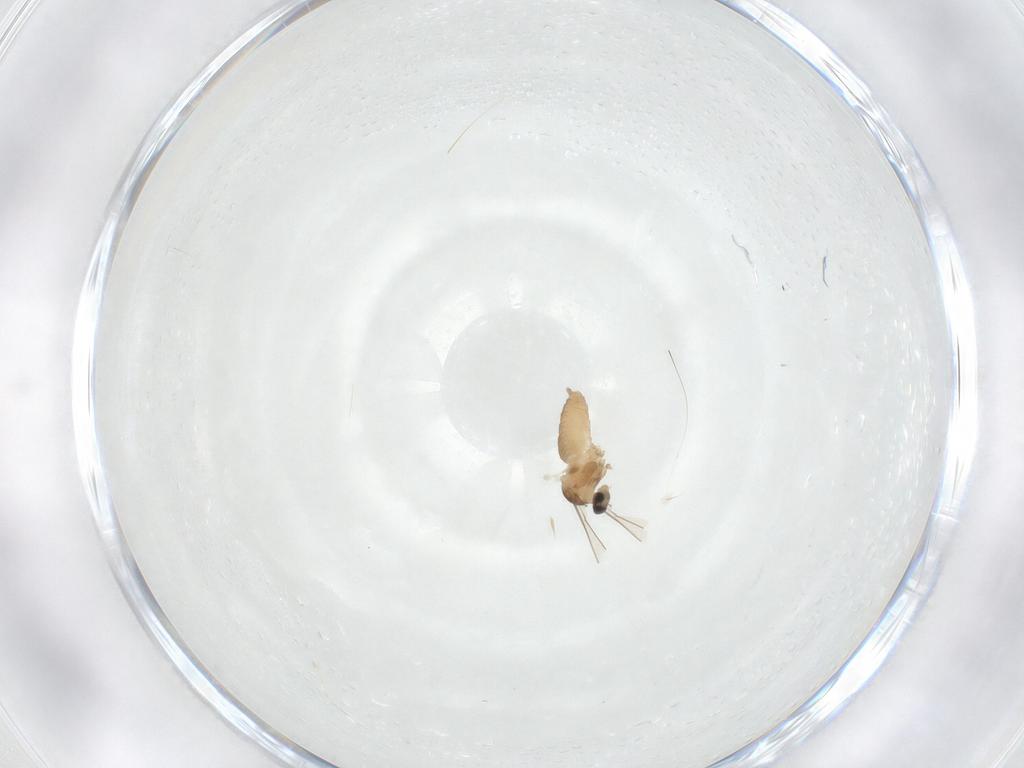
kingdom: Animalia
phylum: Arthropoda
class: Insecta
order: Diptera
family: Cecidomyiidae
